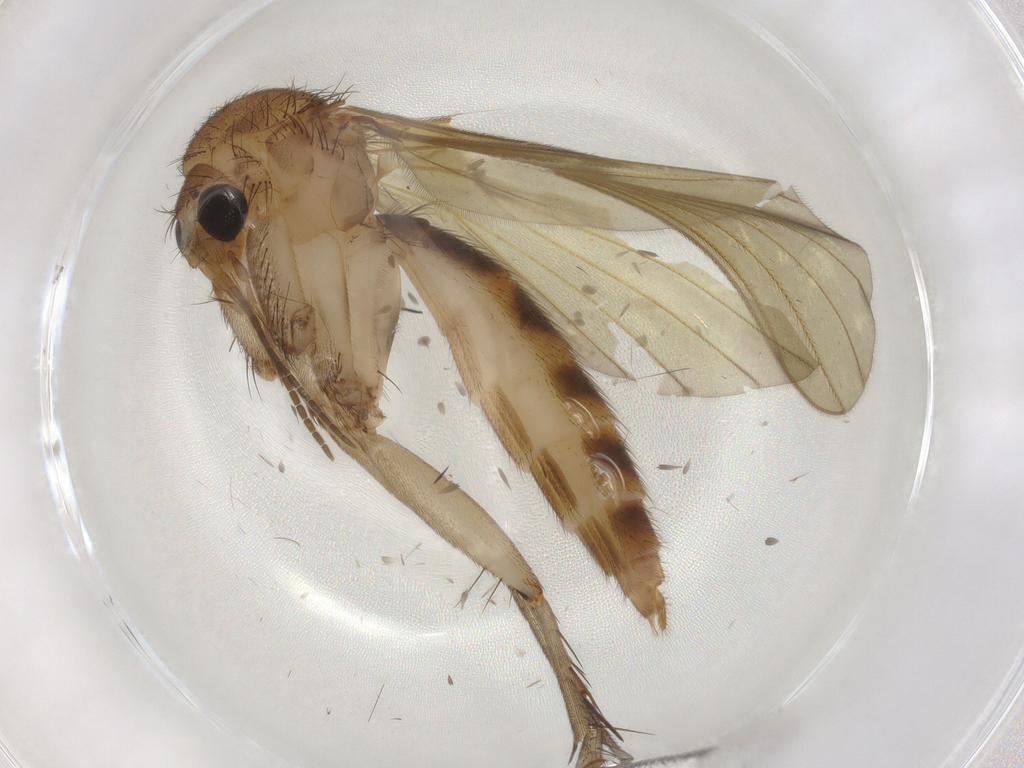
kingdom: Animalia
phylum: Arthropoda
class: Insecta
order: Diptera
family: Mycetophilidae
